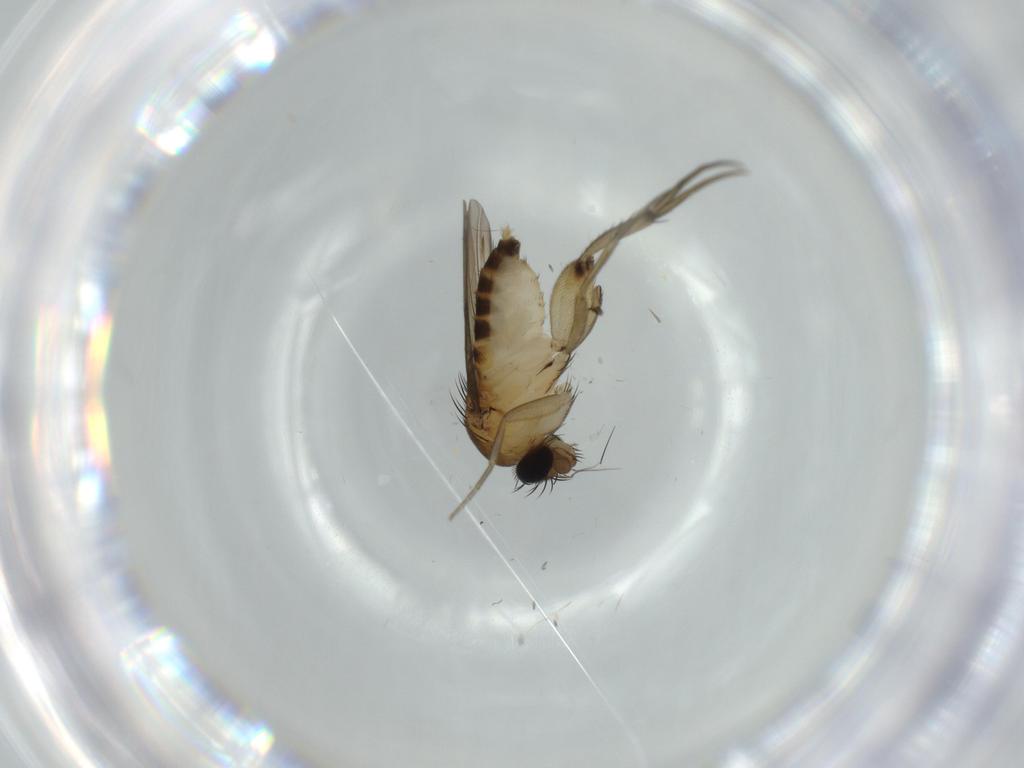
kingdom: Animalia
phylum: Arthropoda
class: Insecta
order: Diptera
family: Phoridae
